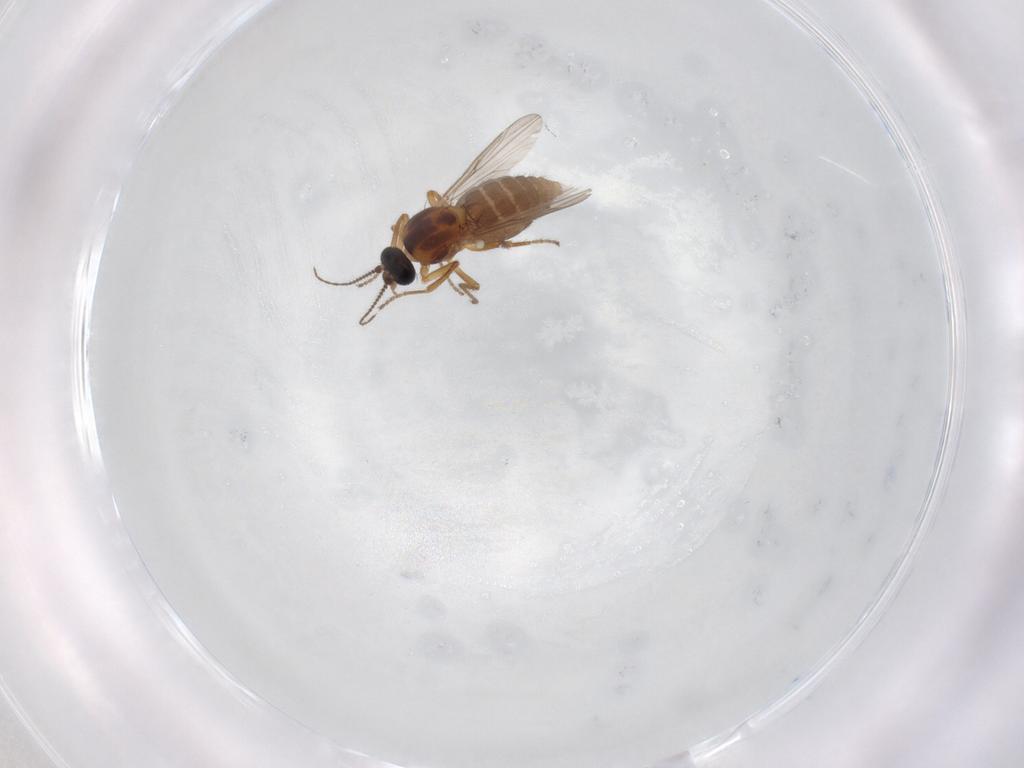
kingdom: Animalia
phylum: Arthropoda
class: Insecta
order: Diptera
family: Ceratopogonidae
